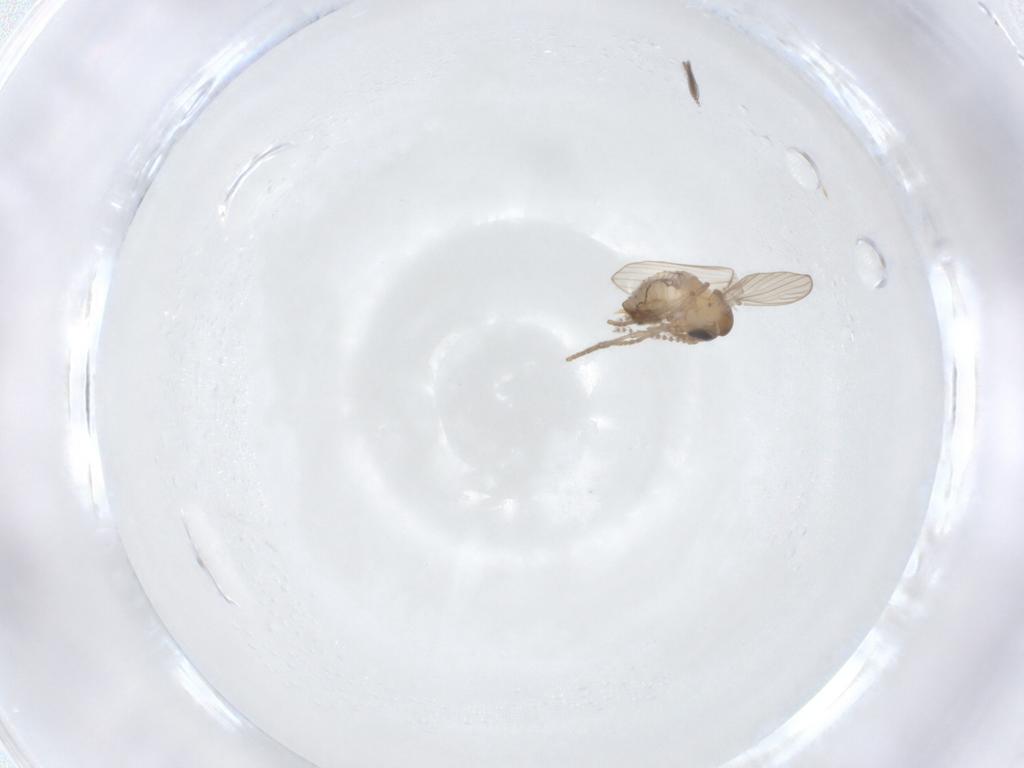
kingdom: Animalia
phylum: Arthropoda
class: Insecta
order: Diptera
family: Psychodidae
